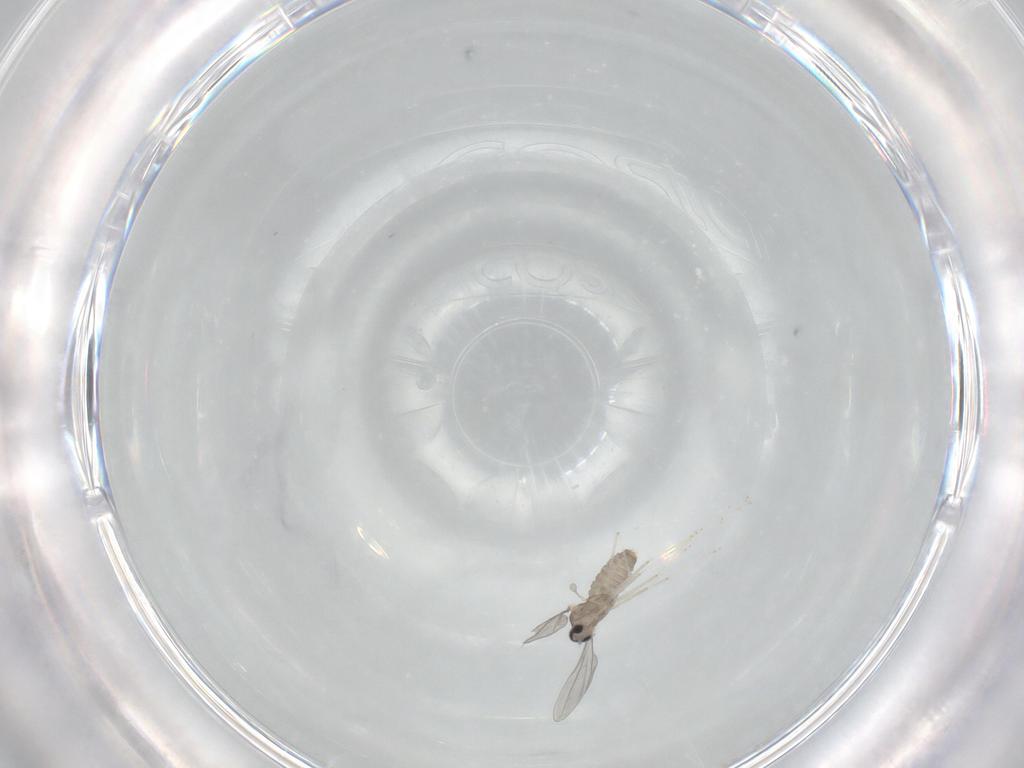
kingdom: Animalia
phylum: Arthropoda
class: Insecta
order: Diptera
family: Cecidomyiidae
